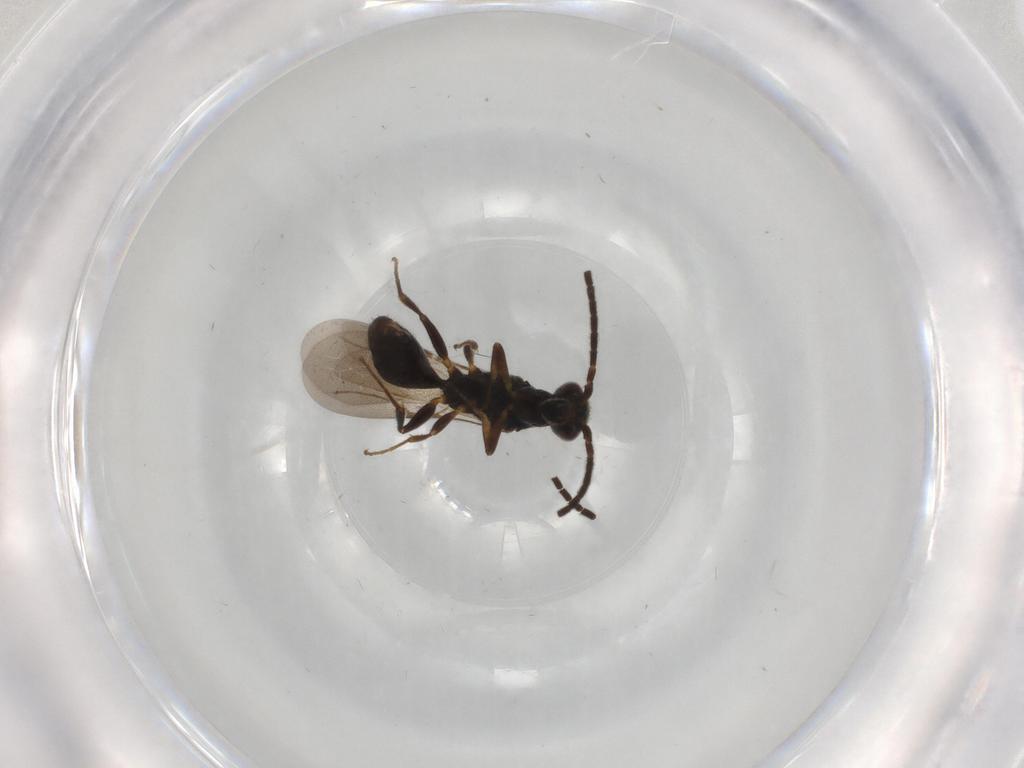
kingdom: Animalia
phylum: Arthropoda
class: Insecta
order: Hymenoptera
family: Bethylidae
